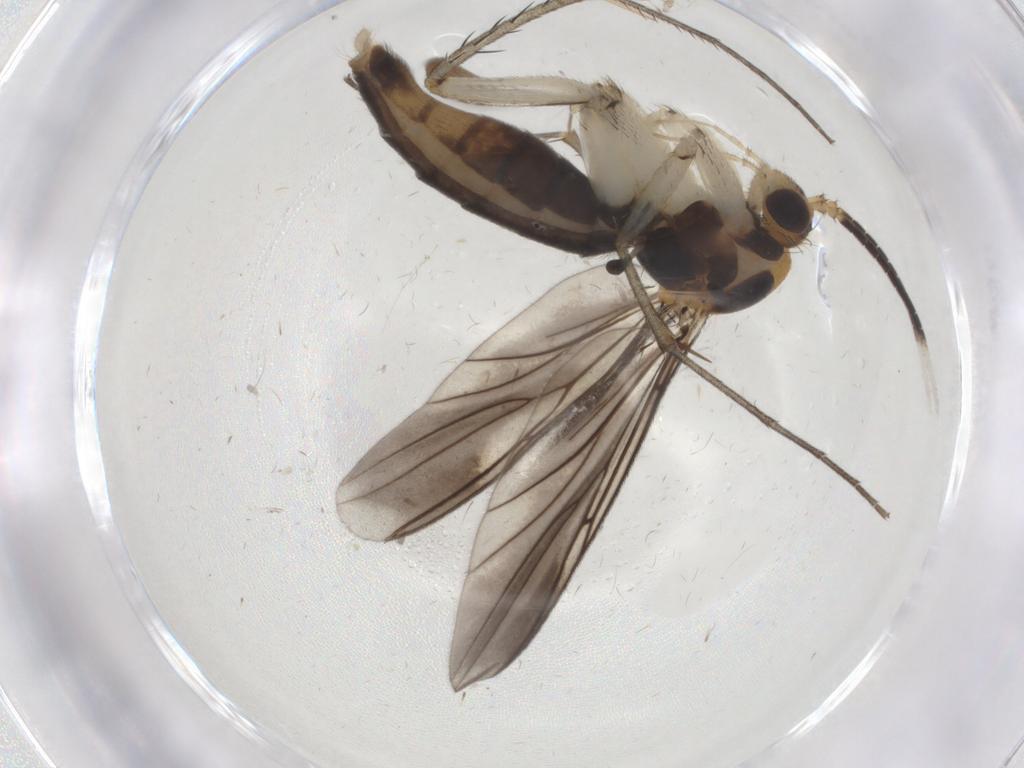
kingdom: Animalia
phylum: Arthropoda
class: Insecta
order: Diptera
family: Mycetophilidae
